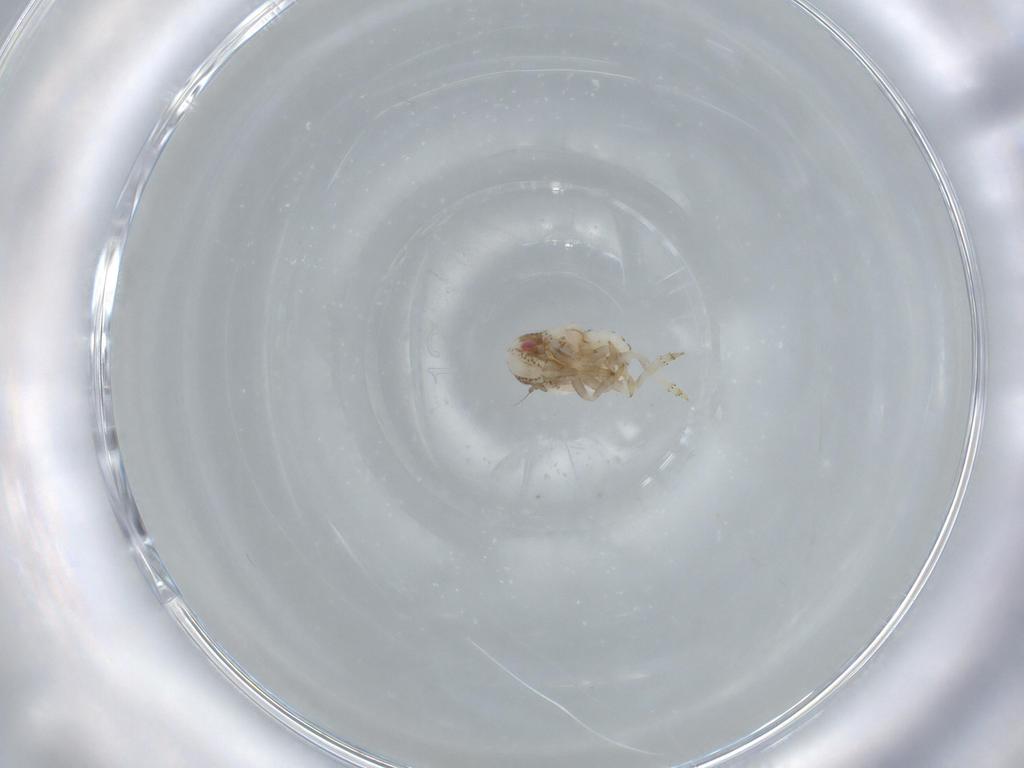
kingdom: Animalia
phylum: Arthropoda
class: Insecta
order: Hemiptera
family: Acanaloniidae
